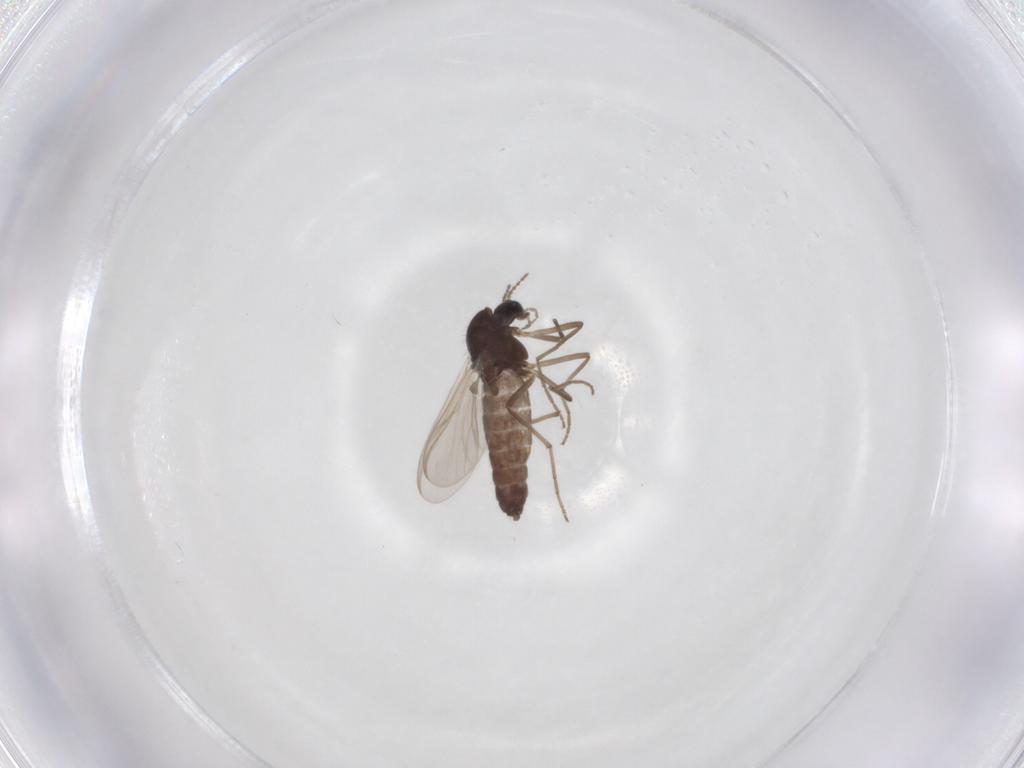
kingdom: Animalia
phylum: Arthropoda
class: Insecta
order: Diptera
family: Chironomidae
